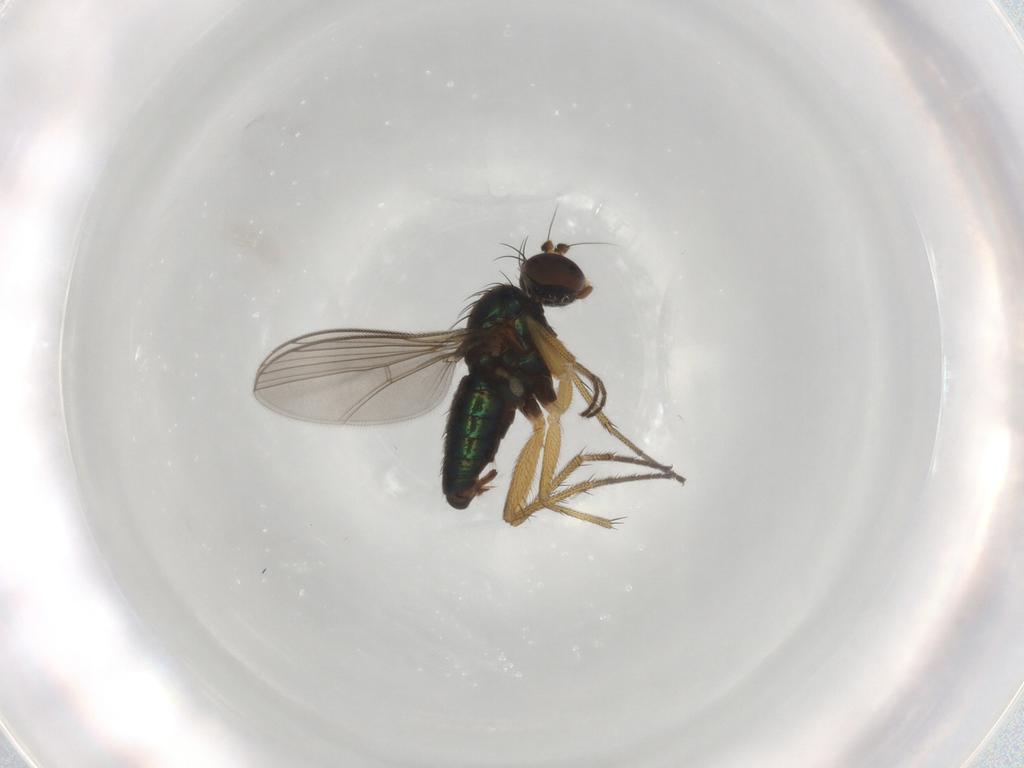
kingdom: Animalia
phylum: Arthropoda
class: Insecta
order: Diptera
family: Dolichopodidae
